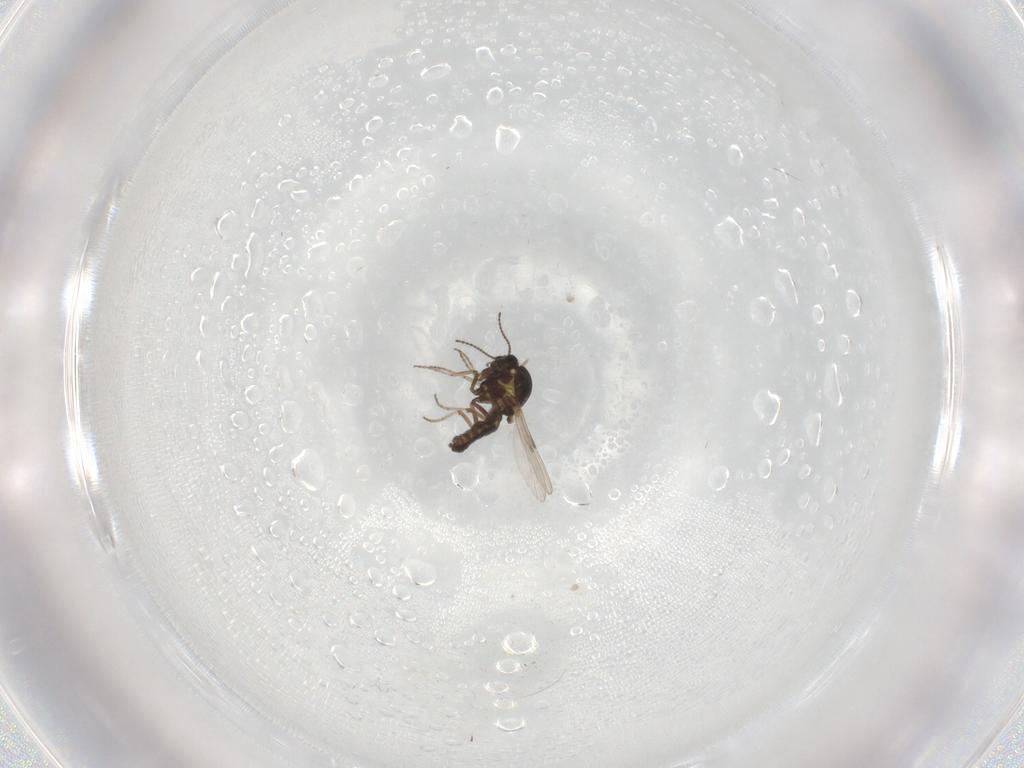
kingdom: Animalia
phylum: Arthropoda
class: Insecta
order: Diptera
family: Ceratopogonidae
